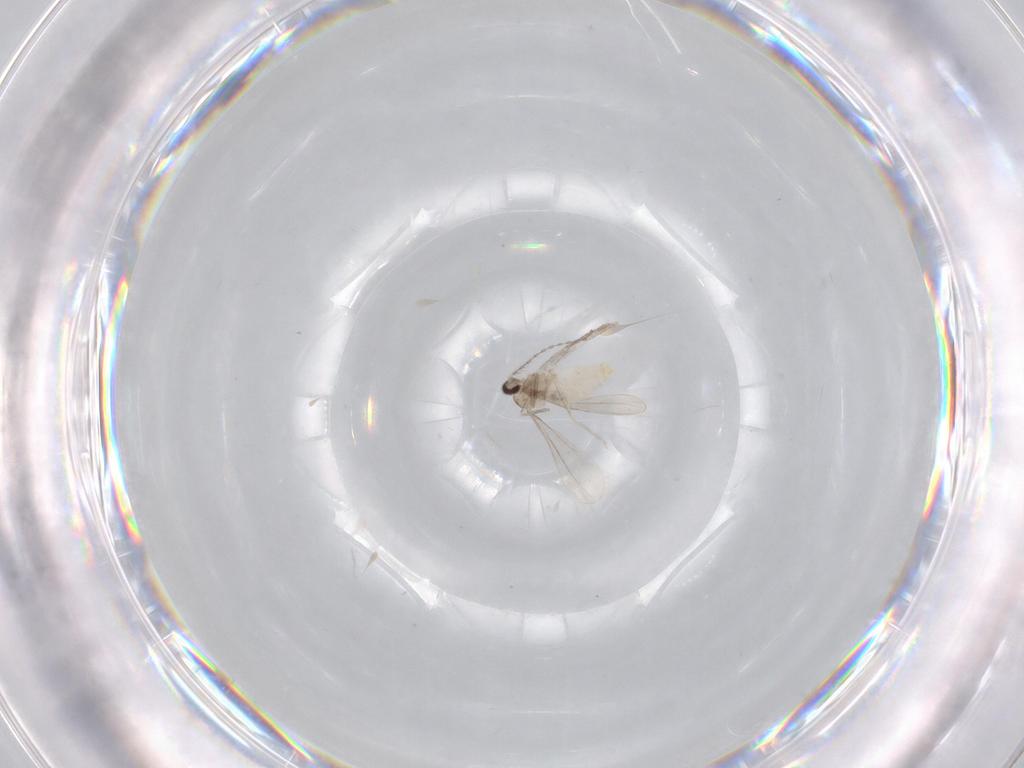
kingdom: Animalia
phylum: Arthropoda
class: Insecta
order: Diptera
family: Cecidomyiidae
